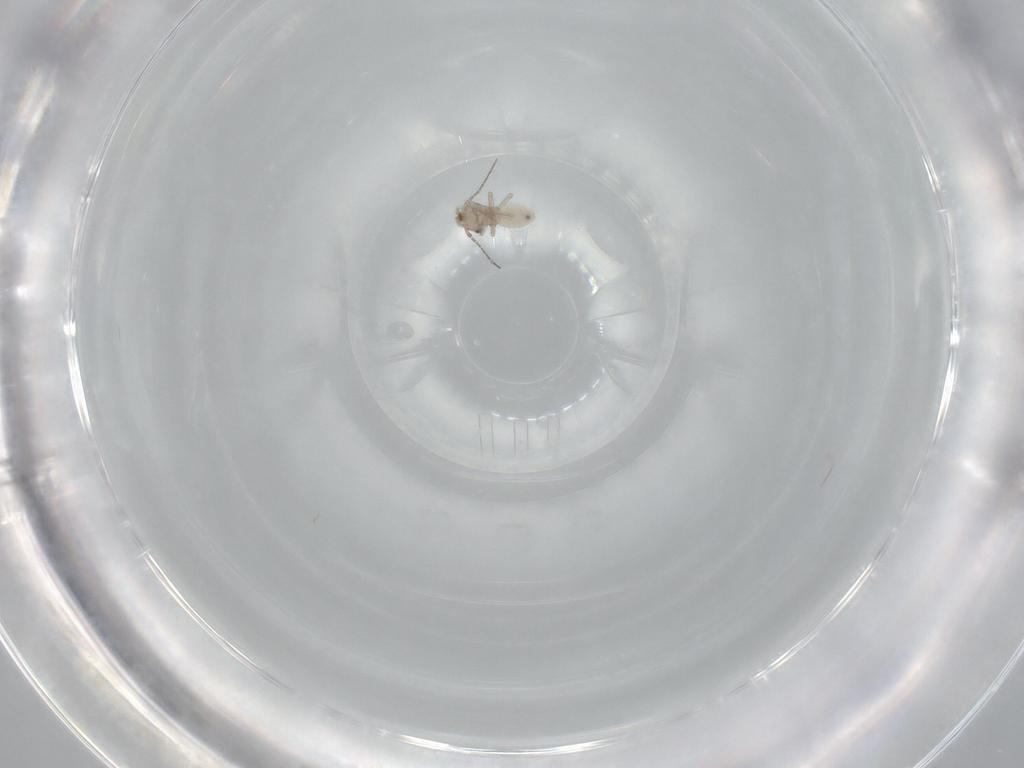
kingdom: Animalia
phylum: Arthropoda
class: Insecta
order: Psocodea
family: Lepidopsocidae
